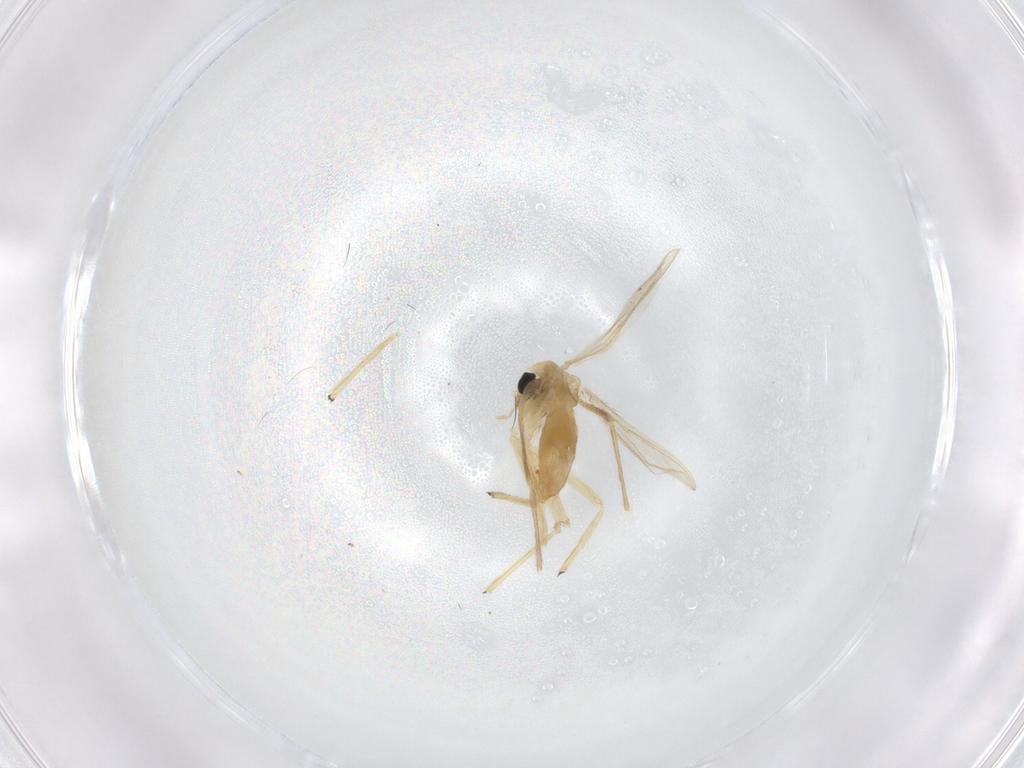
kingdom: Animalia
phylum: Arthropoda
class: Insecta
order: Diptera
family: Chironomidae
